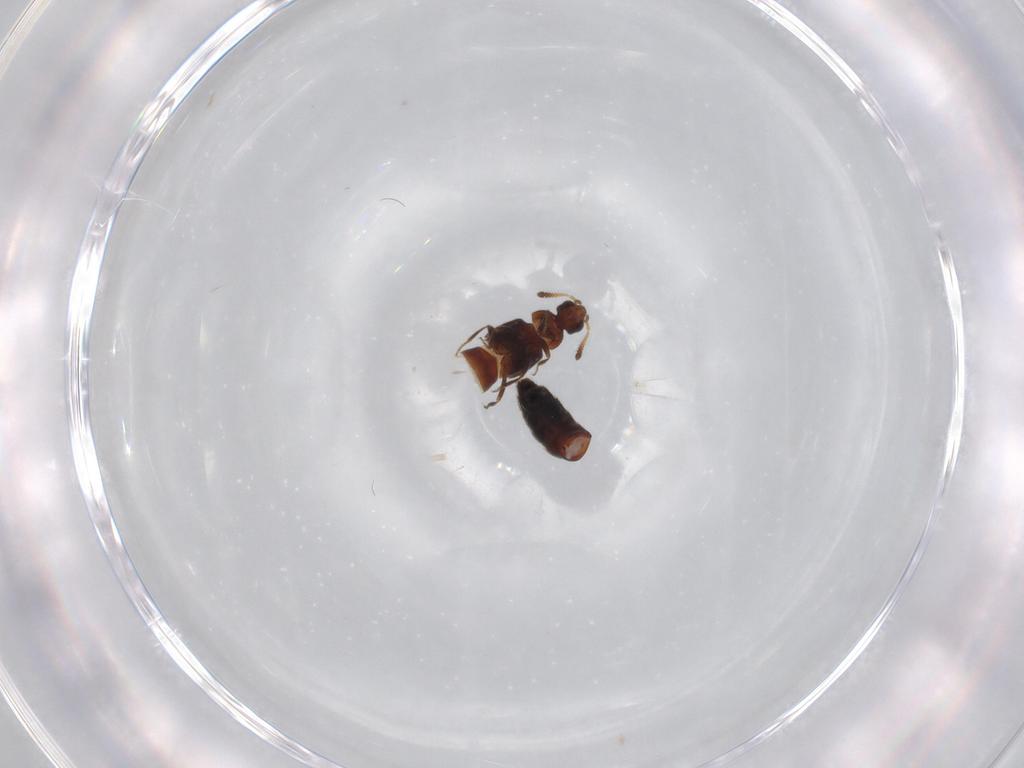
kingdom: Animalia
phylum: Arthropoda
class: Insecta
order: Coleoptera
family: Staphylinidae
